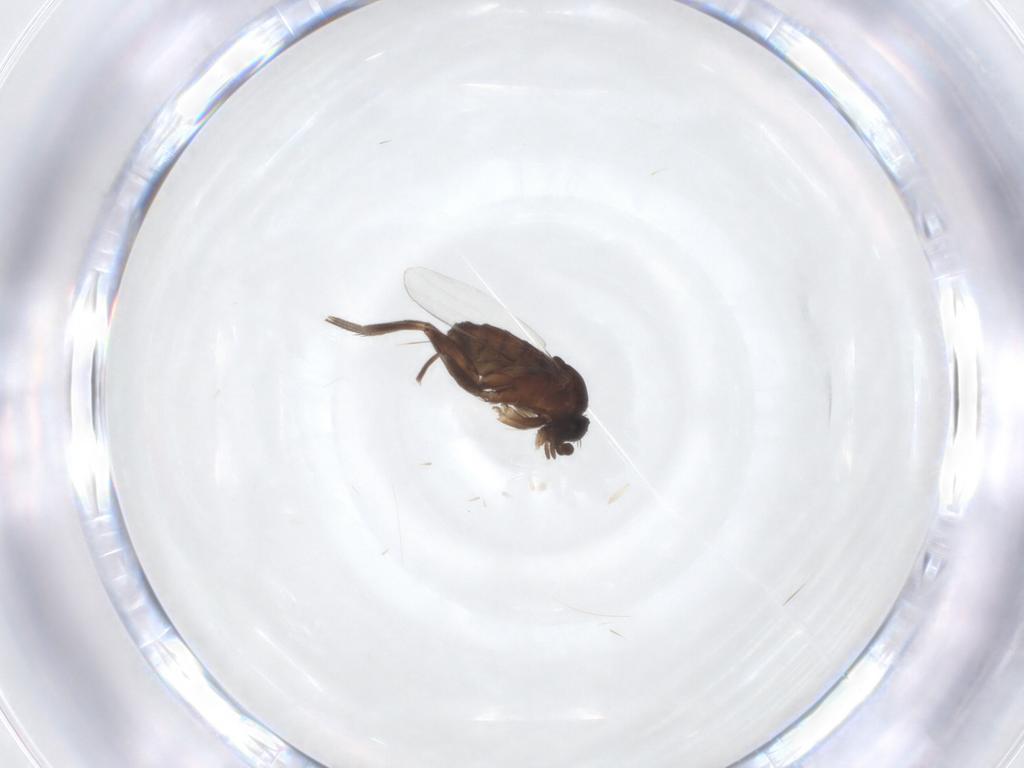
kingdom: Animalia
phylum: Arthropoda
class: Insecta
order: Diptera
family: Phoridae
